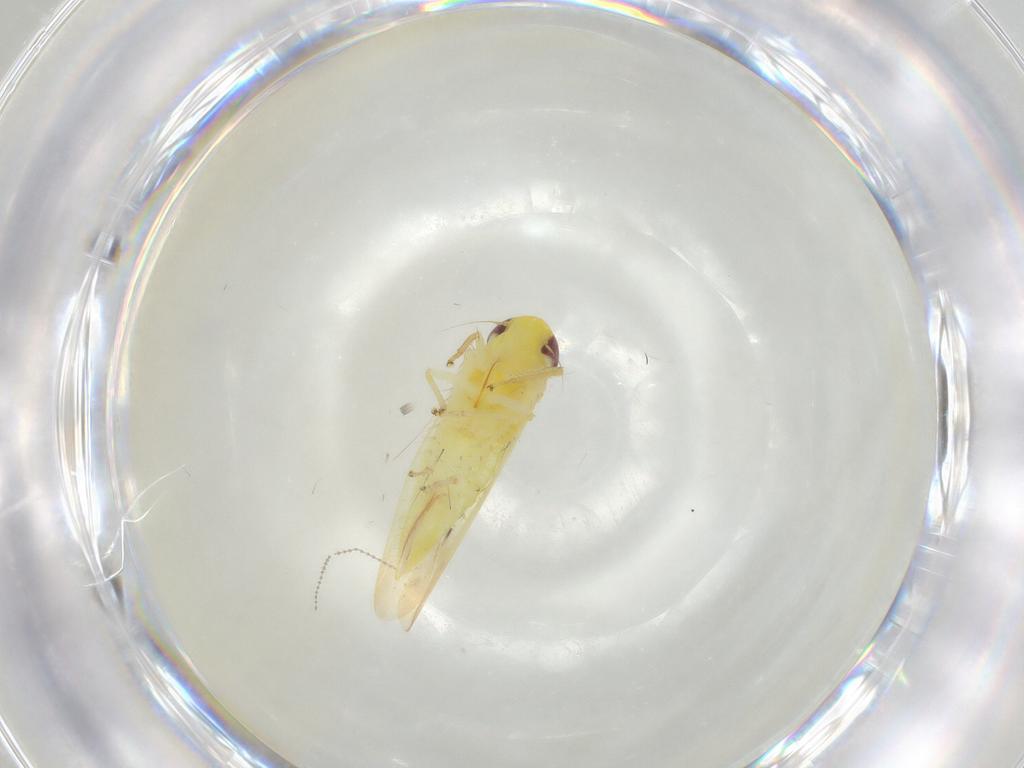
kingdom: Animalia
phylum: Arthropoda
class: Insecta
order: Hemiptera
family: Cicadellidae
